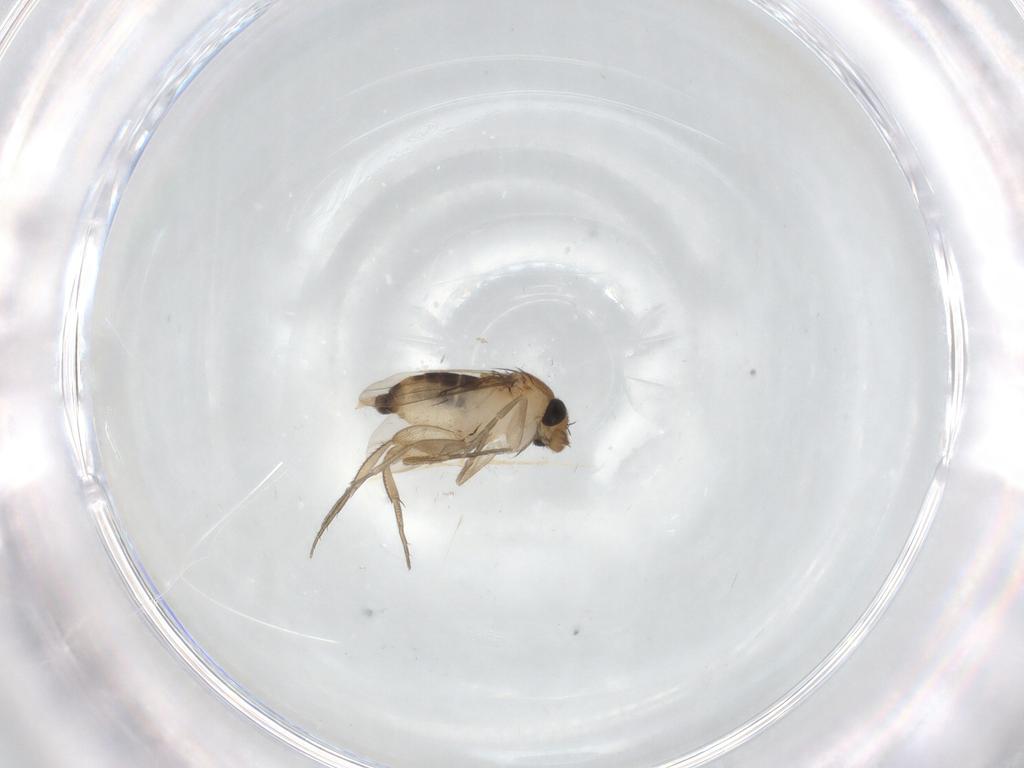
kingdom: Animalia
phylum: Arthropoda
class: Insecta
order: Diptera
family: Phoridae
